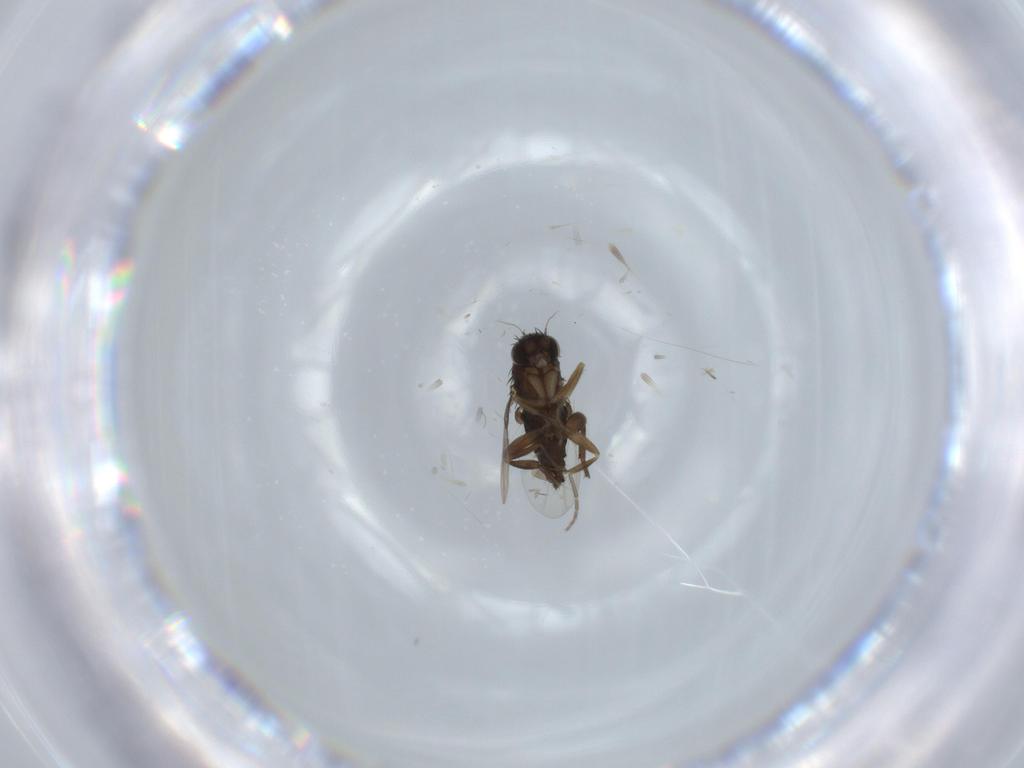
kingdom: Animalia
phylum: Arthropoda
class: Insecta
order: Diptera
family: Phoridae
